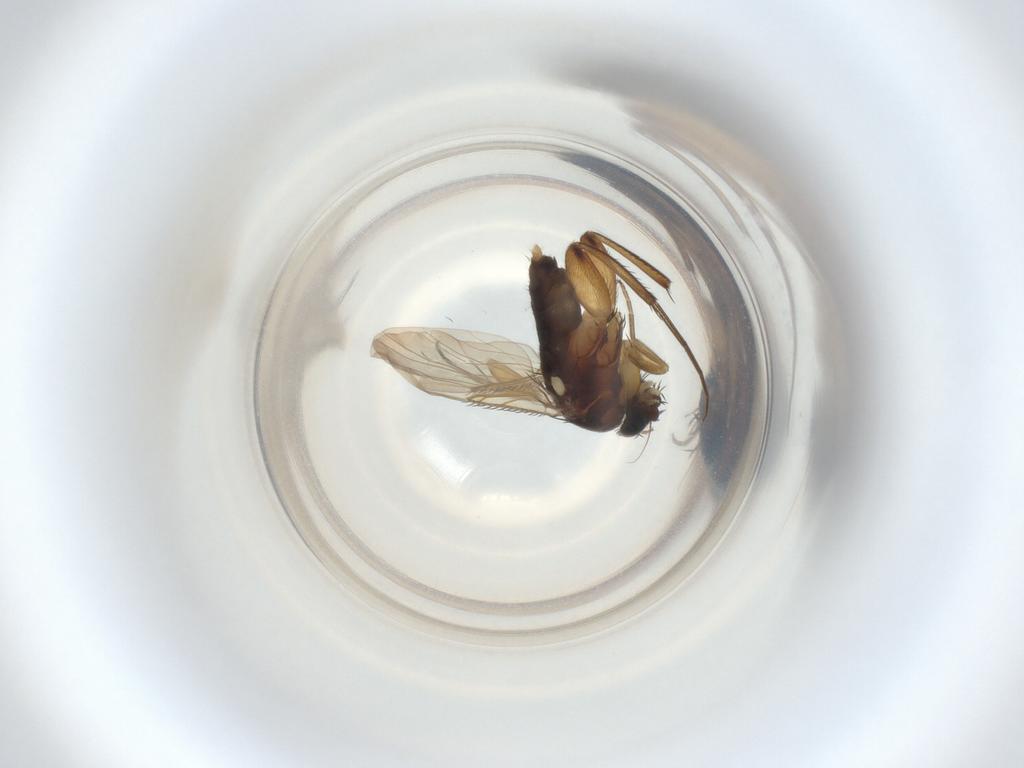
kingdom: Animalia
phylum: Arthropoda
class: Insecta
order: Diptera
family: Phoridae
